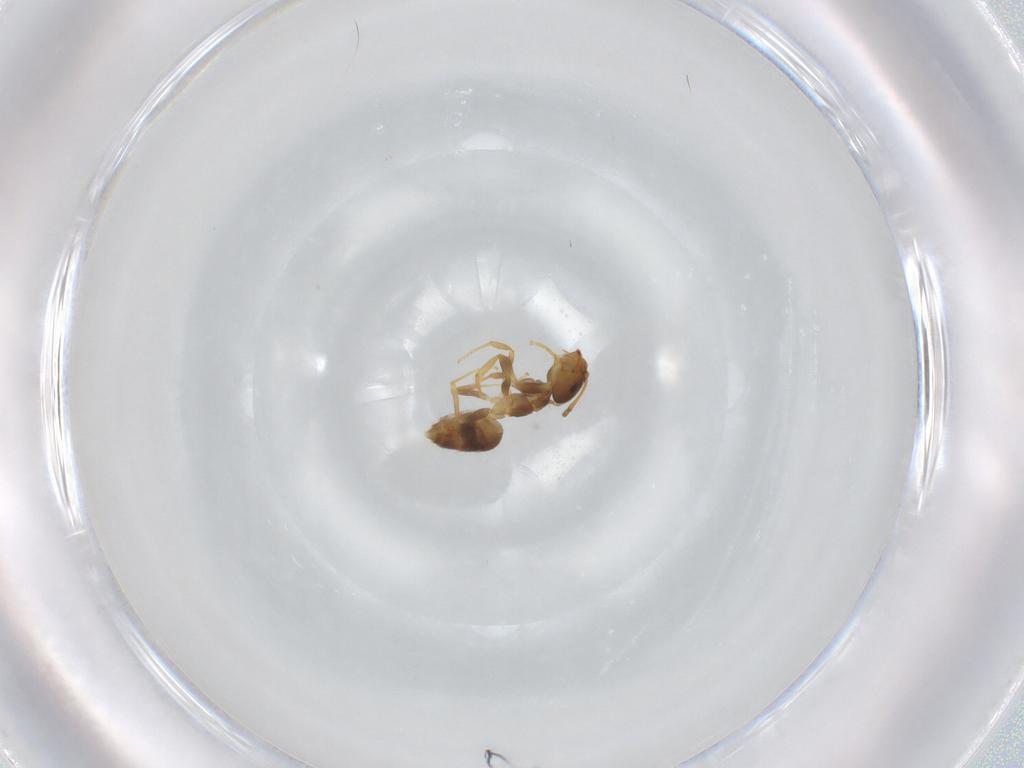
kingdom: Animalia
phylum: Arthropoda
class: Insecta
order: Hymenoptera
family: Formicidae
